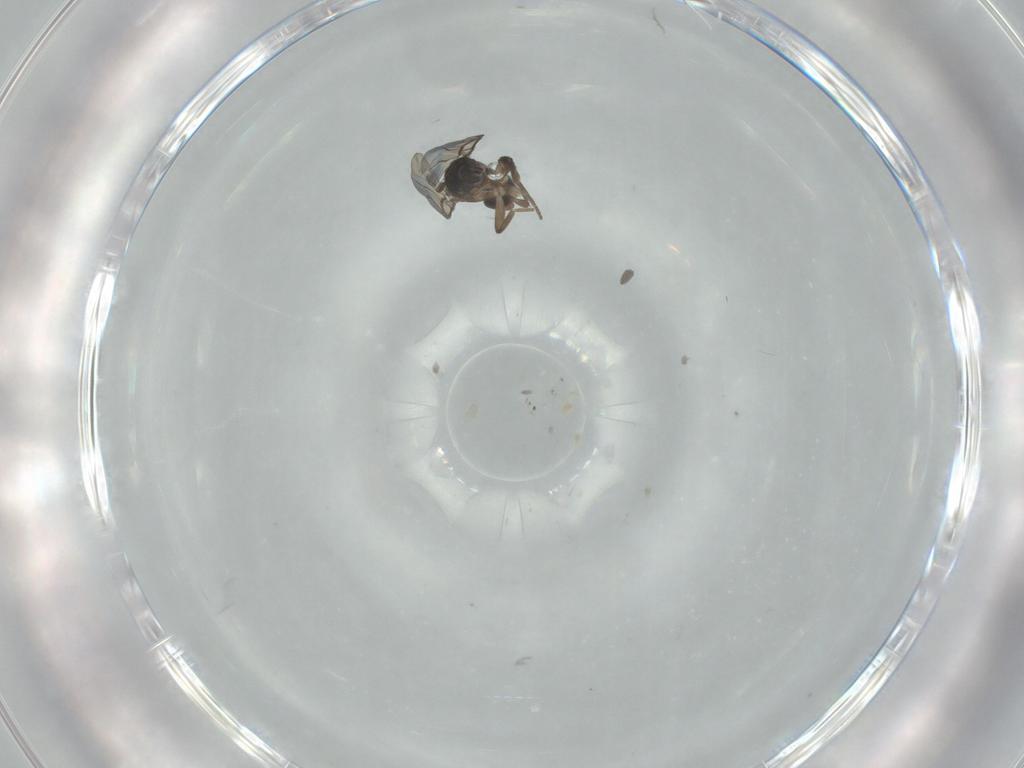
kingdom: Animalia
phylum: Arthropoda
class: Insecta
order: Diptera
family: Phoridae
